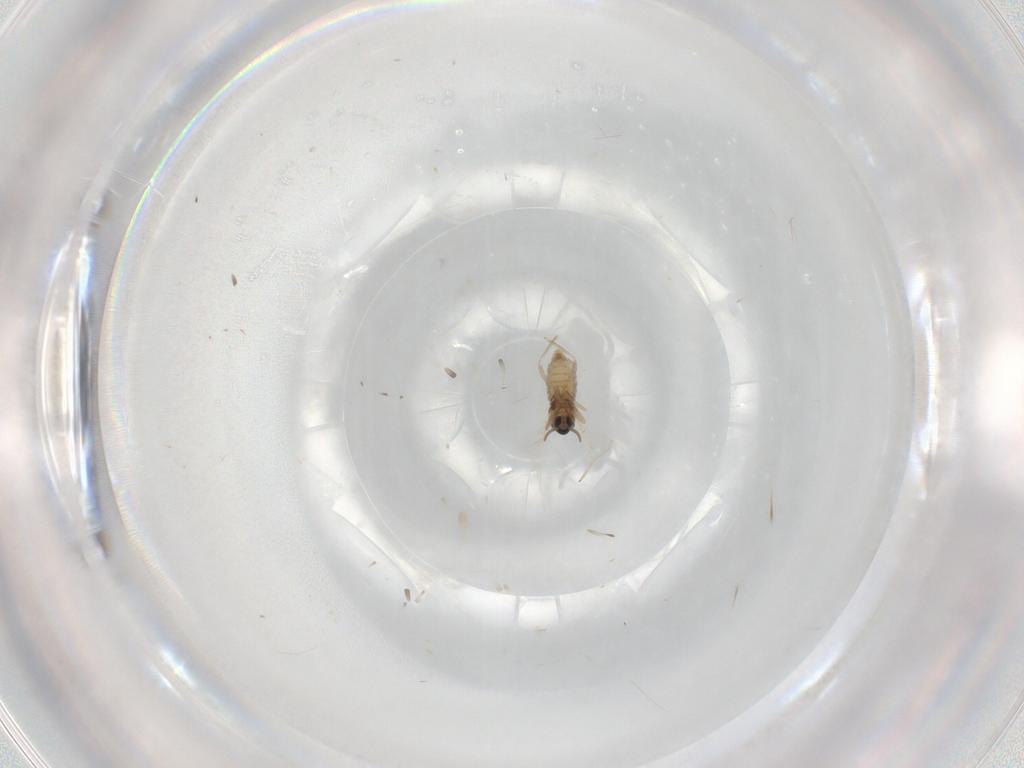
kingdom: Animalia
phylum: Arthropoda
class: Insecta
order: Diptera
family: Cecidomyiidae
